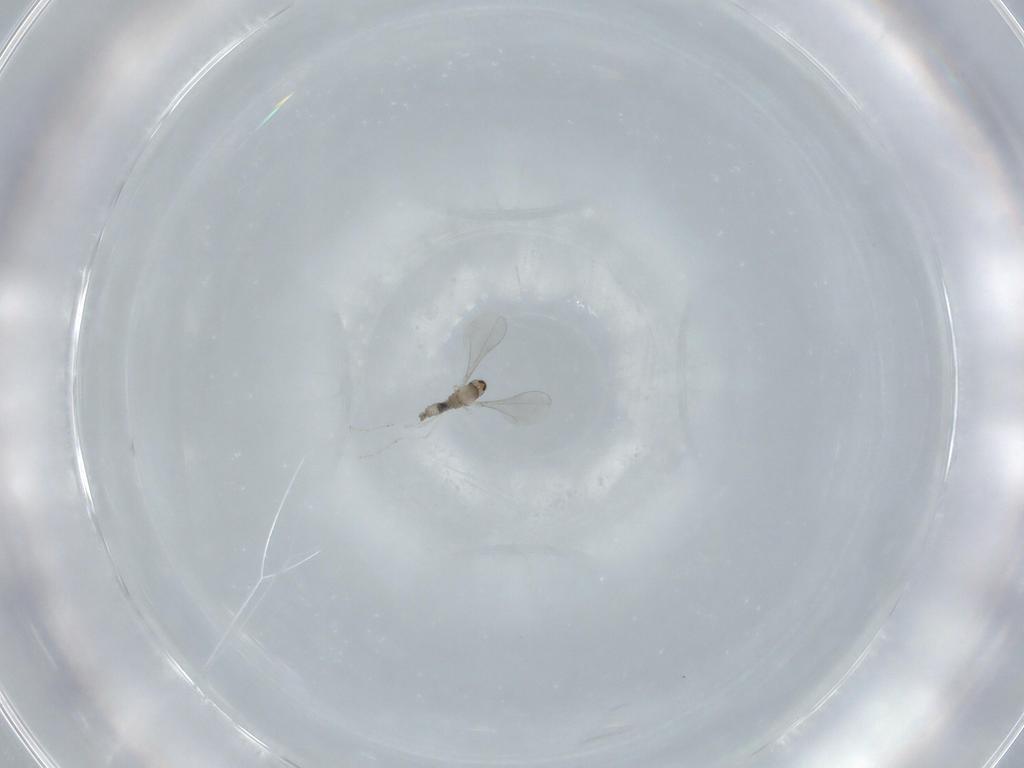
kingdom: Animalia
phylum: Arthropoda
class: Insecta
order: Diptera
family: Cecidomyiidae
